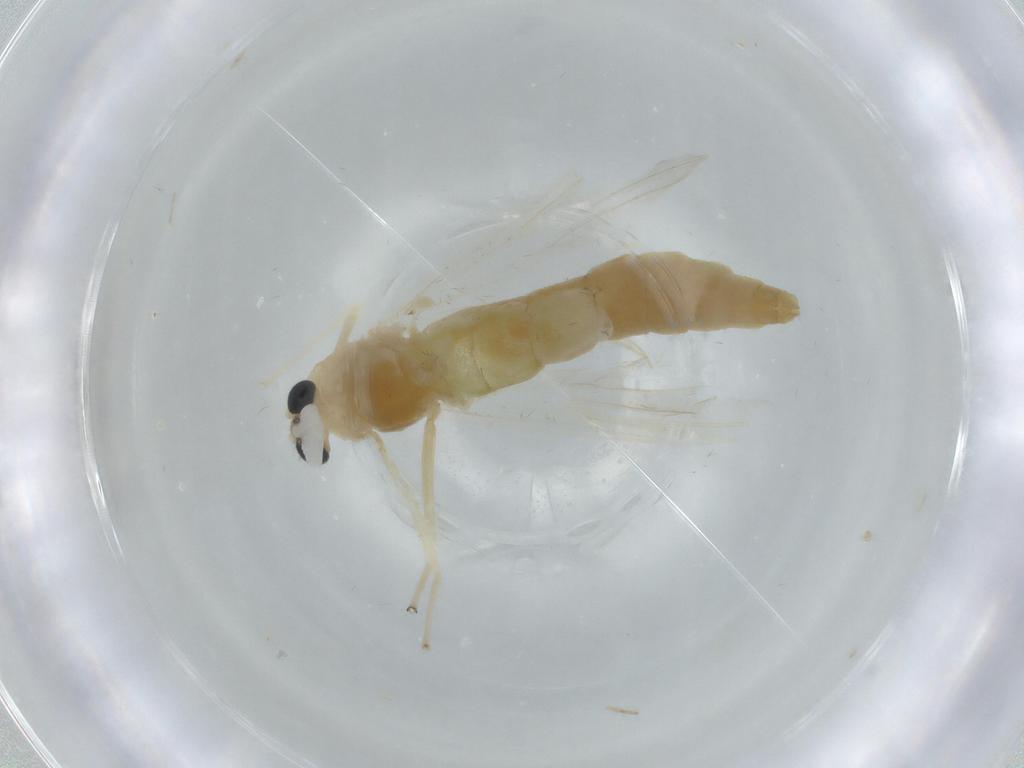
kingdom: Animalia
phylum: Arthropoda
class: Insecta
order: Diptera
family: Chironomidae
